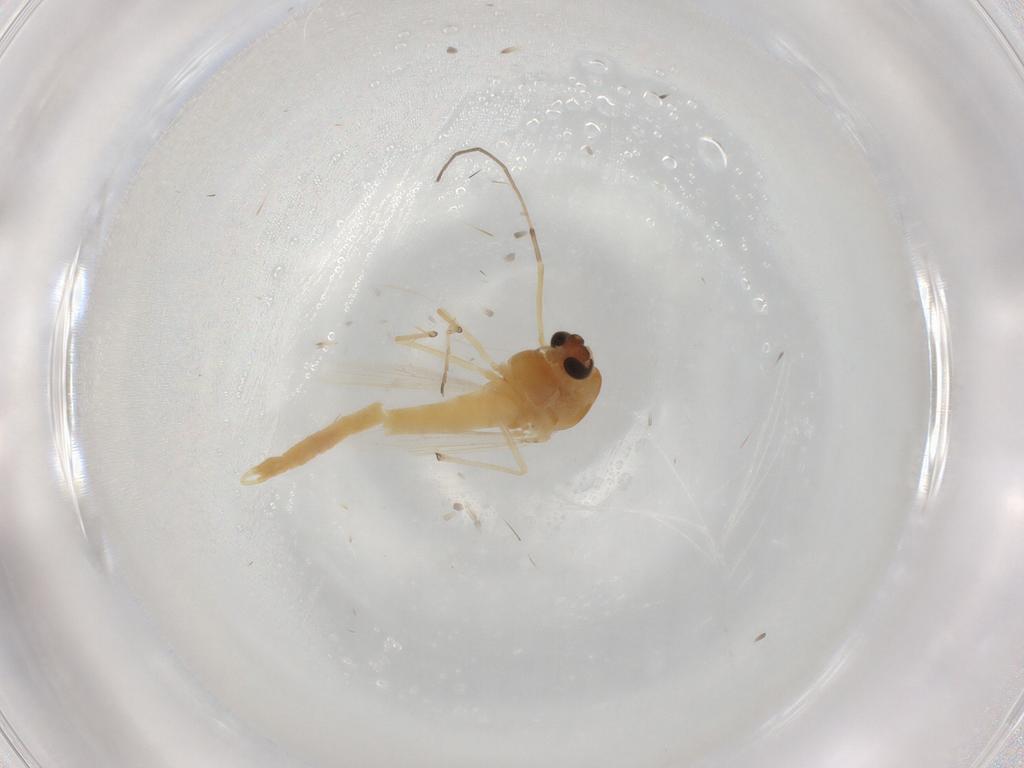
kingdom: Animalia
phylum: Arthropoda
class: Insecta
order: Diptera
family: Chironomidae
